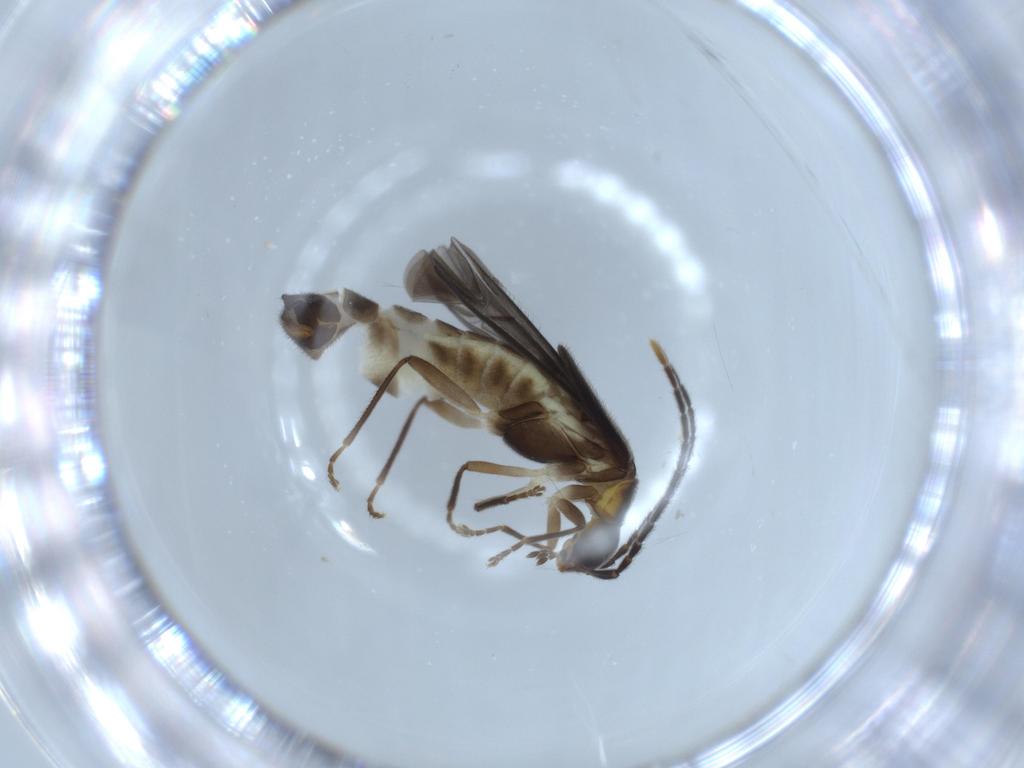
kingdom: Animalia
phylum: Arthropoda
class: Insecta
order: Coleoptera
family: Cantharidae
